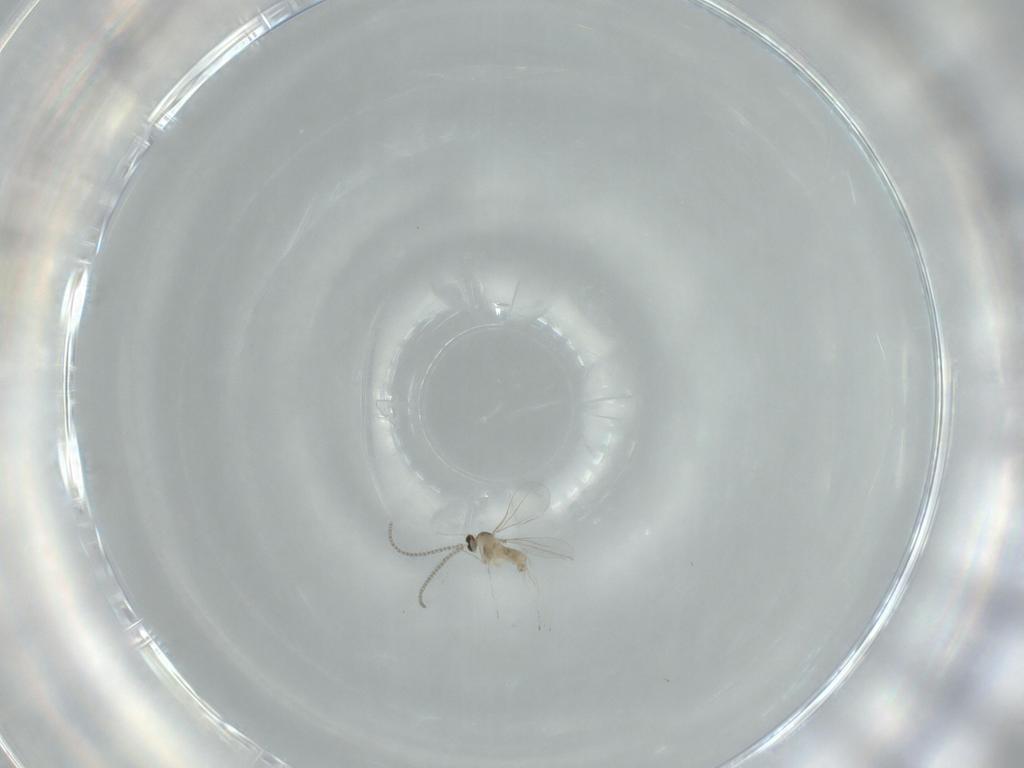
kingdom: Animalia
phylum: Arthropoda
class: Insecta
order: Diptera
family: Cecidomyiidae
